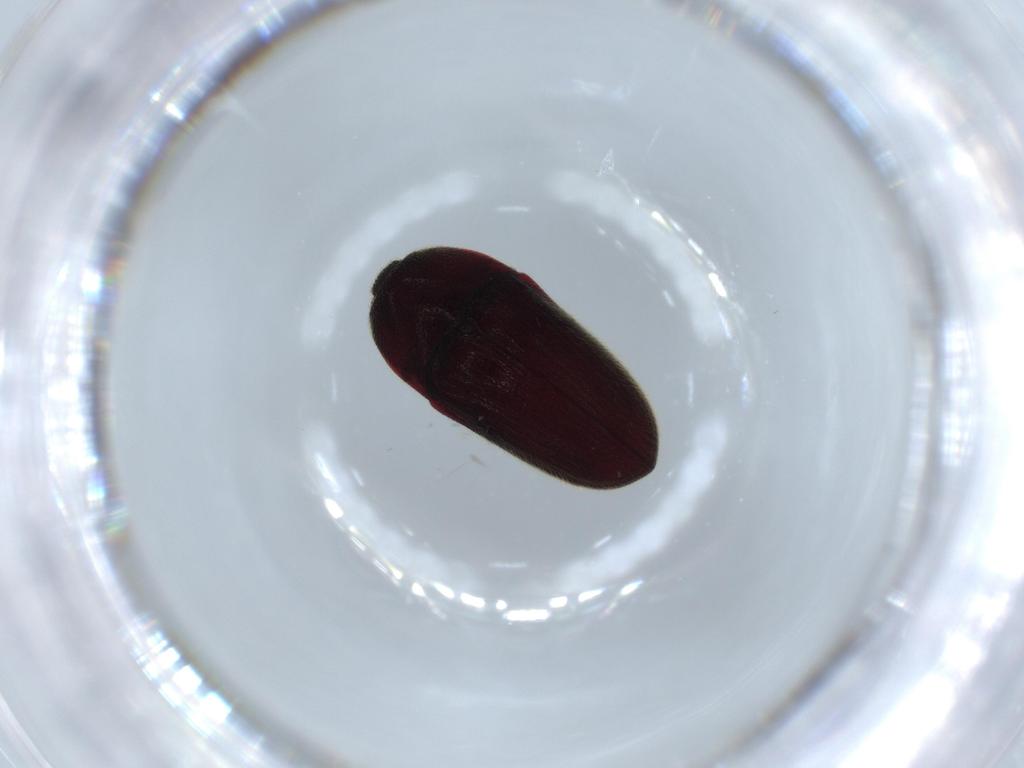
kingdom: Animalia
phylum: Arthropoda
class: Insecta
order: Coleoptera
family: Throscidae
